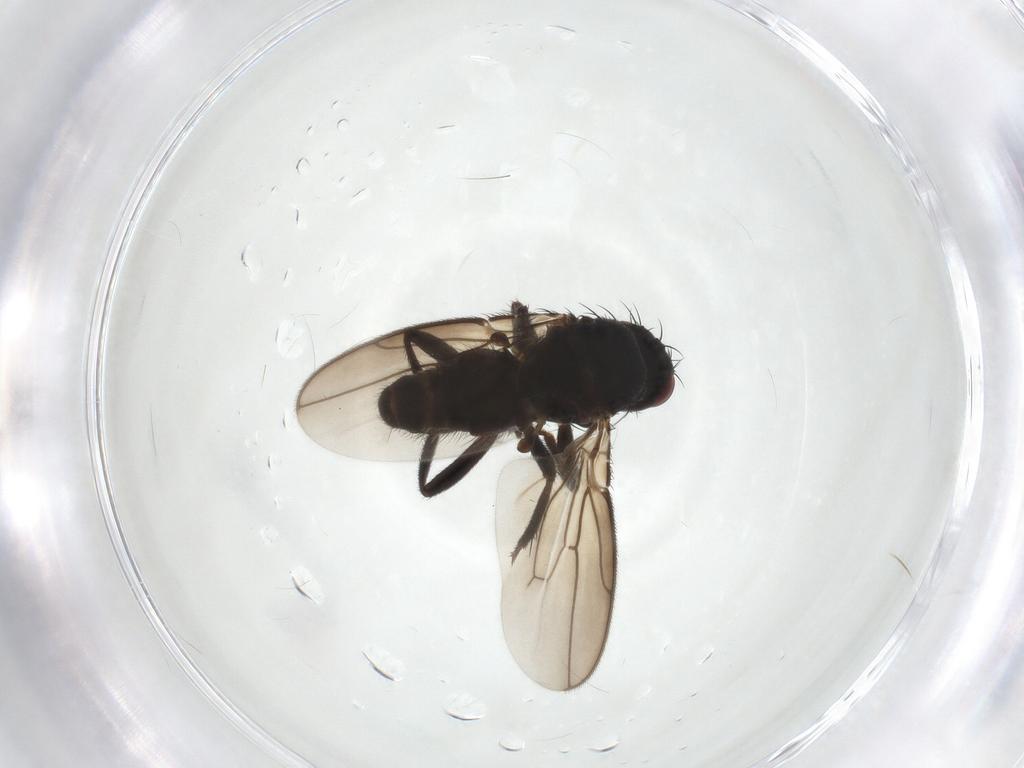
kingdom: Animalia
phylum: Arthropoda
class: Insecta
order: Diptera
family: Sphaeroceridae
